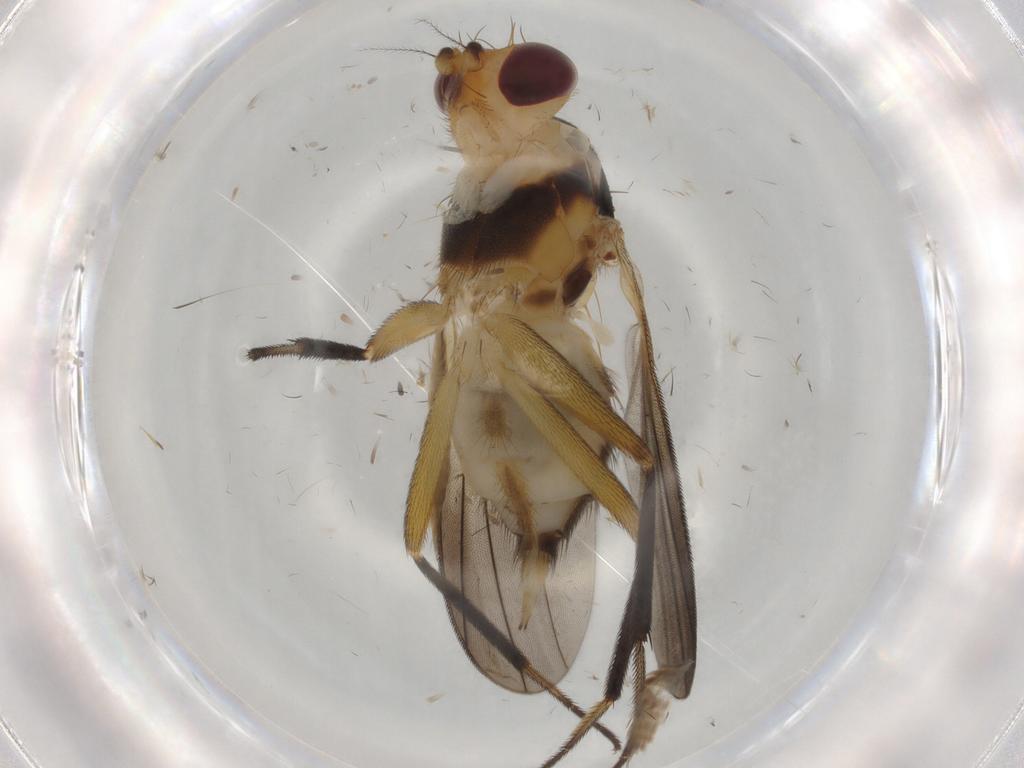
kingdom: Animalia
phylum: Arthropoda
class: Insecta
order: Diptera
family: Clusiidae
